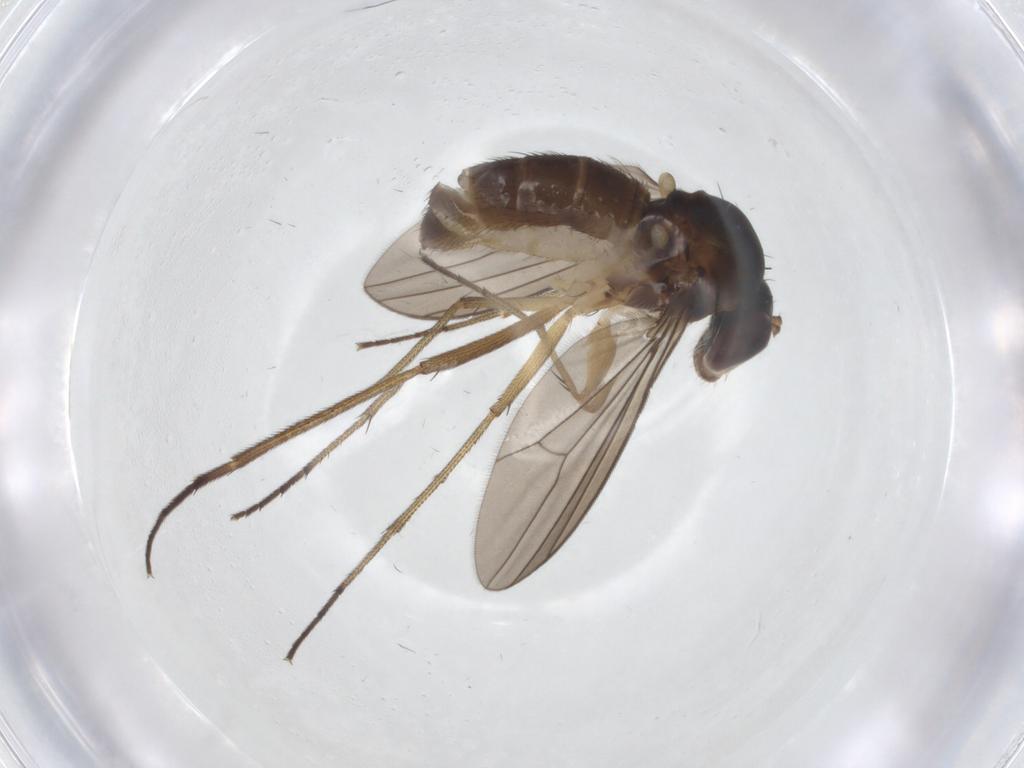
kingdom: Animalia
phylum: Arthropoda
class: Insecta
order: Diptera
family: Dolichopodidae
